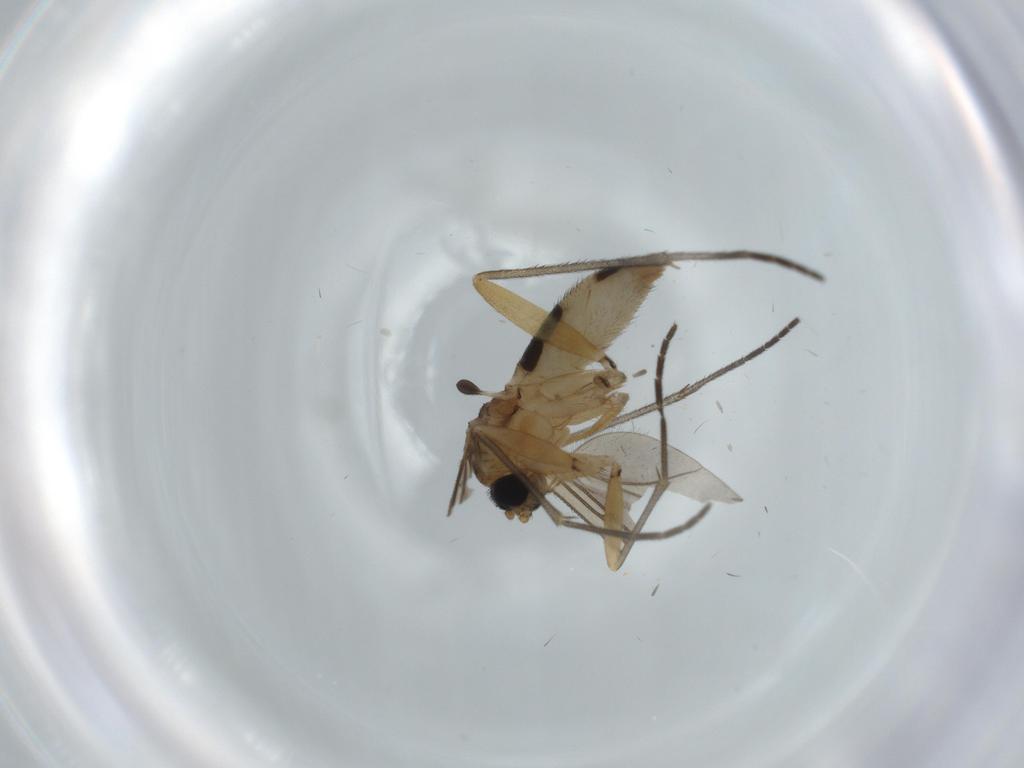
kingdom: Animalia
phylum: Arthropoda
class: Insecta
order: Diptera
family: Sciaridae
